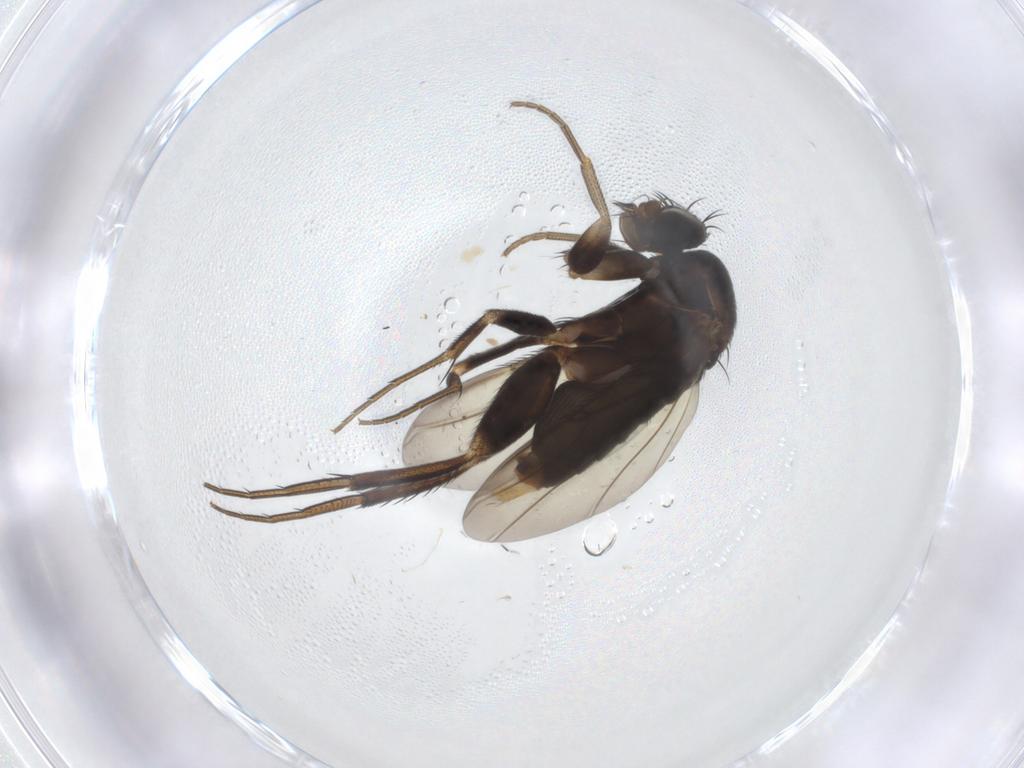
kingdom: Animalia
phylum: Arthropoda
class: Insecta
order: Diptera
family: Phoridae
